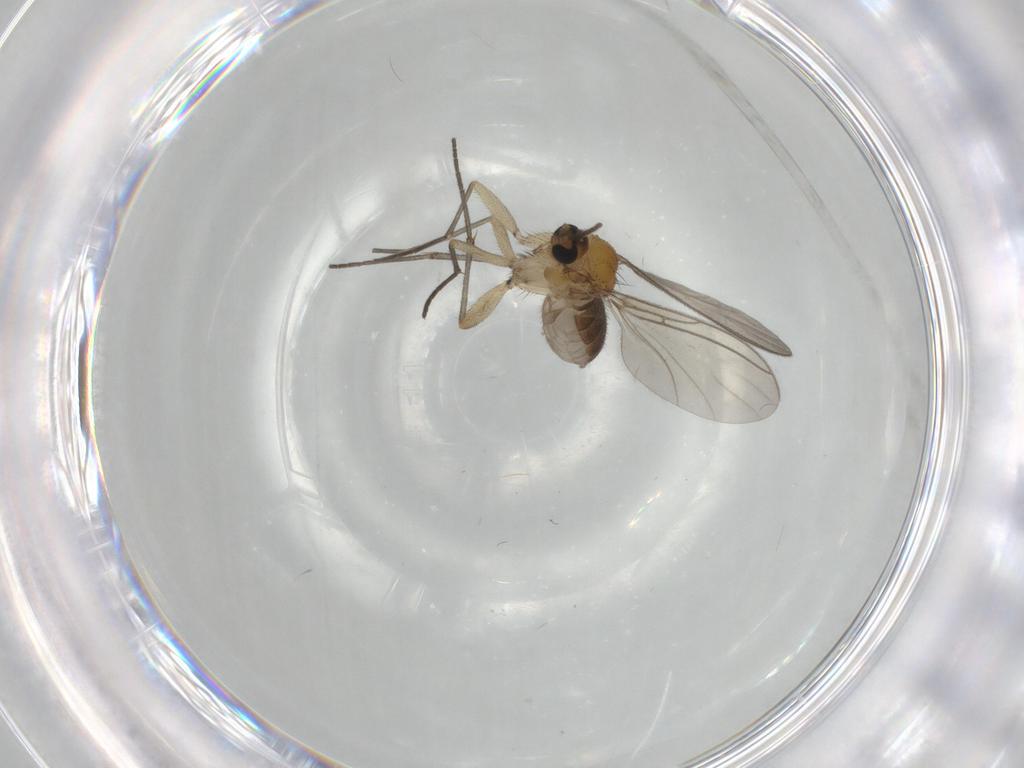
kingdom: Animalia
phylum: Arthropoda
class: Insecta
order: Diptera
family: Sciaridae
